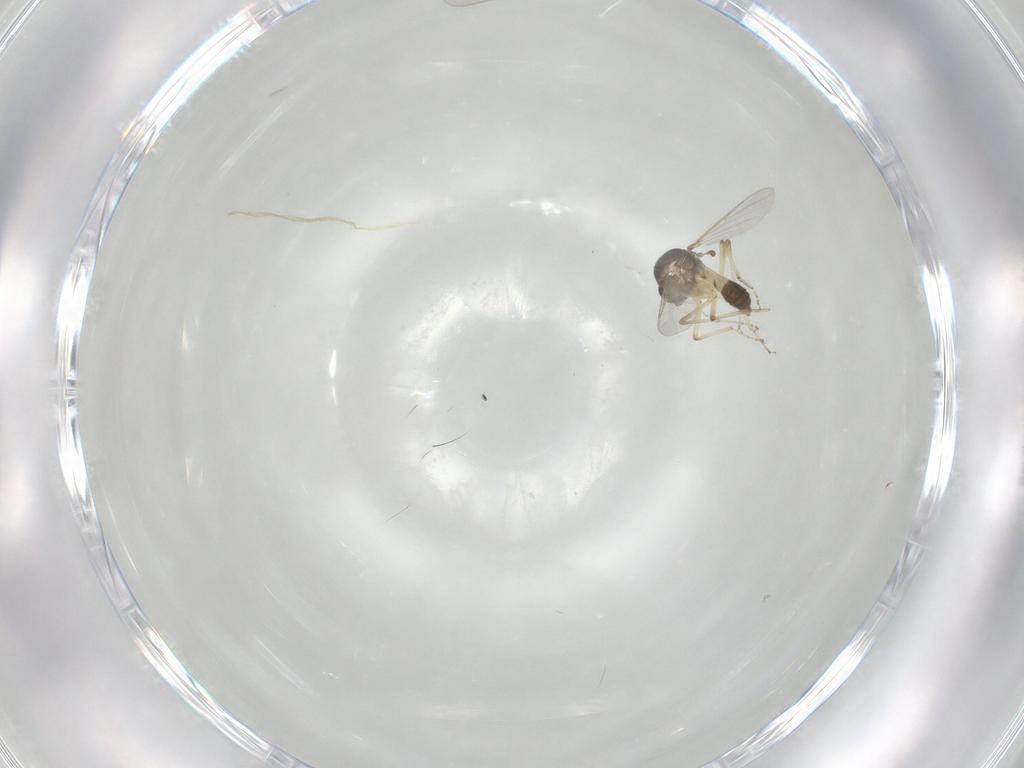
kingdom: Animalia
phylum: Arthropoda
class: Insecta
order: Diptera
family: Ceratopogonidae
